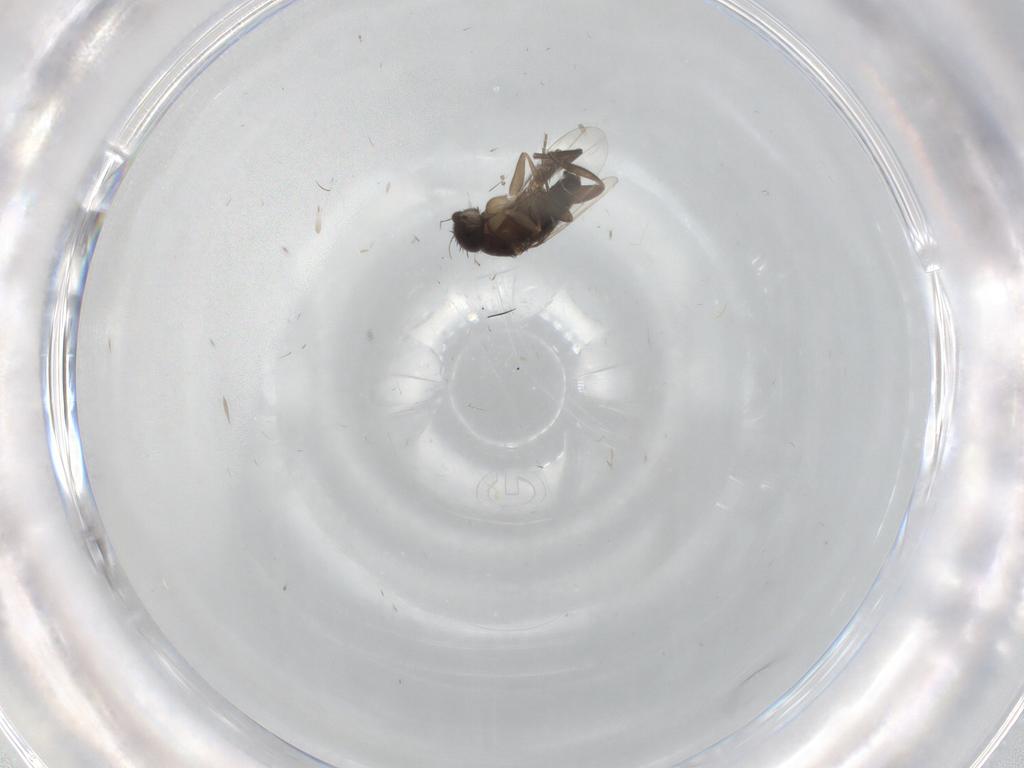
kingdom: Animalia
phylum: Arthropoda
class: Insecta
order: Diptera
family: Phoridae
